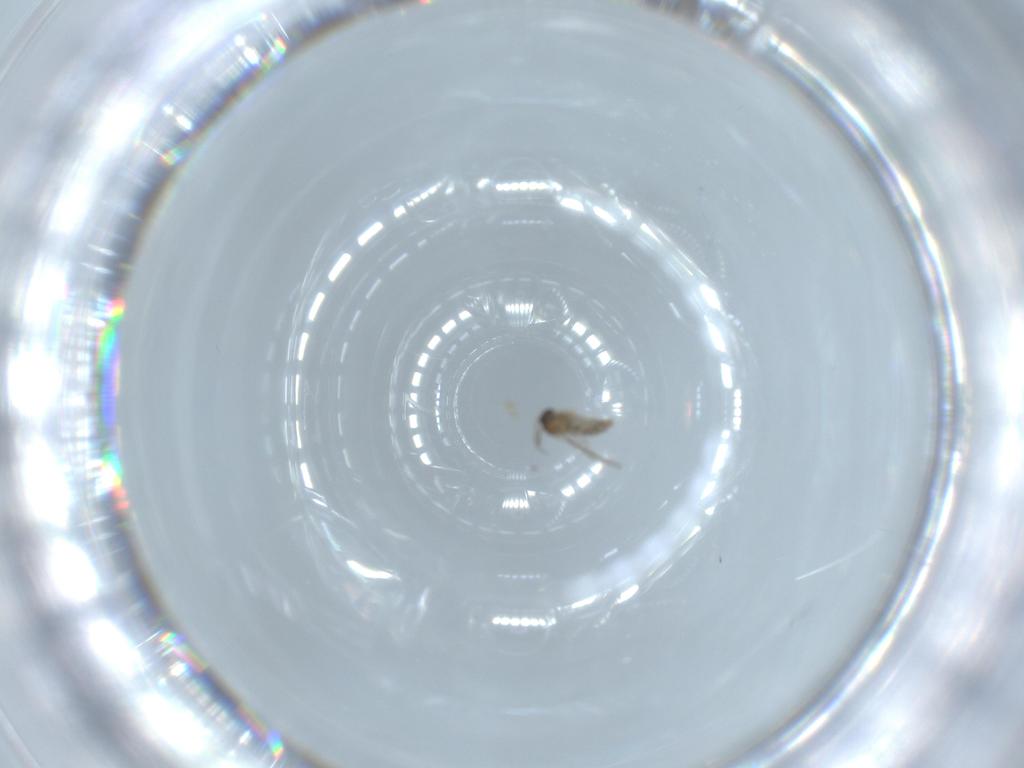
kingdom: Animalia
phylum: Arthropoda
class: Insecta
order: Diptera
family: Cecidomyiidae
